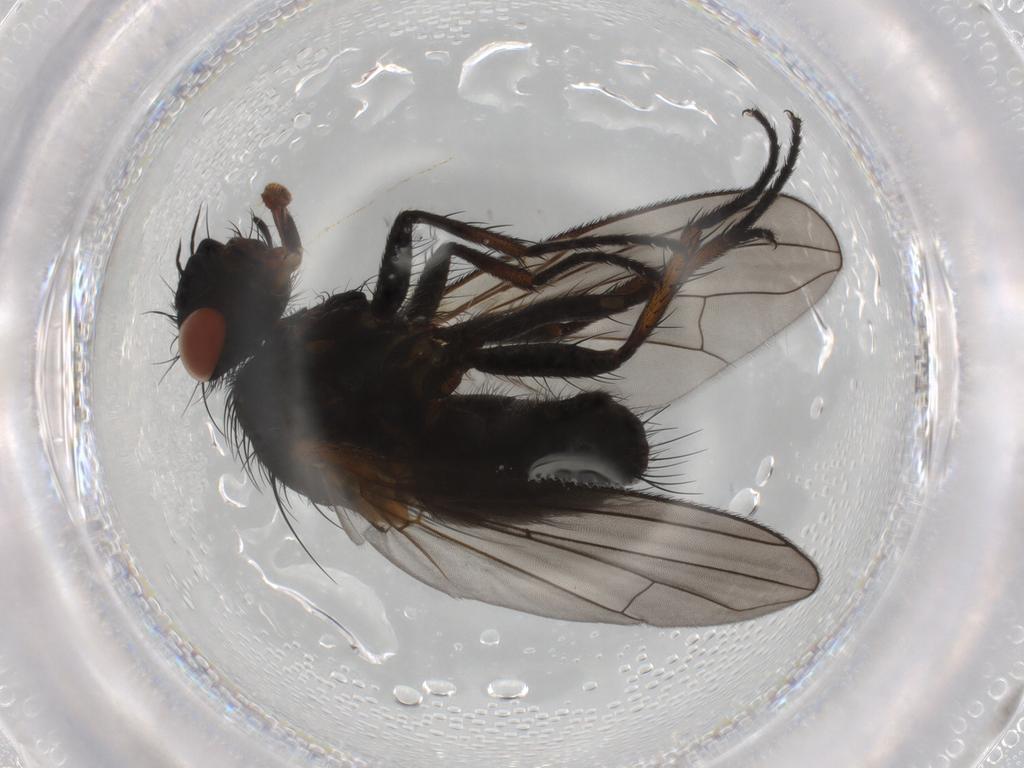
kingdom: Animalia
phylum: Arthropoda
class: Insecta
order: Diptera
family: Tachinidae
